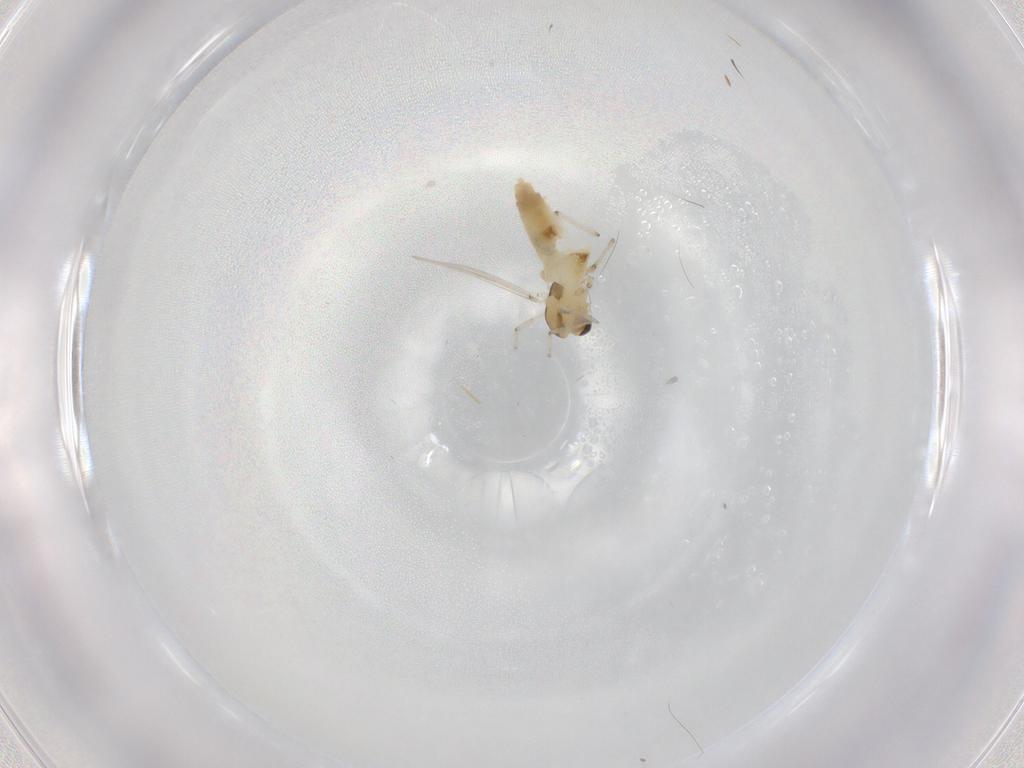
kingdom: Animalia
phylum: Arthropoda
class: Insecta
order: Diptera
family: Chironomidae
